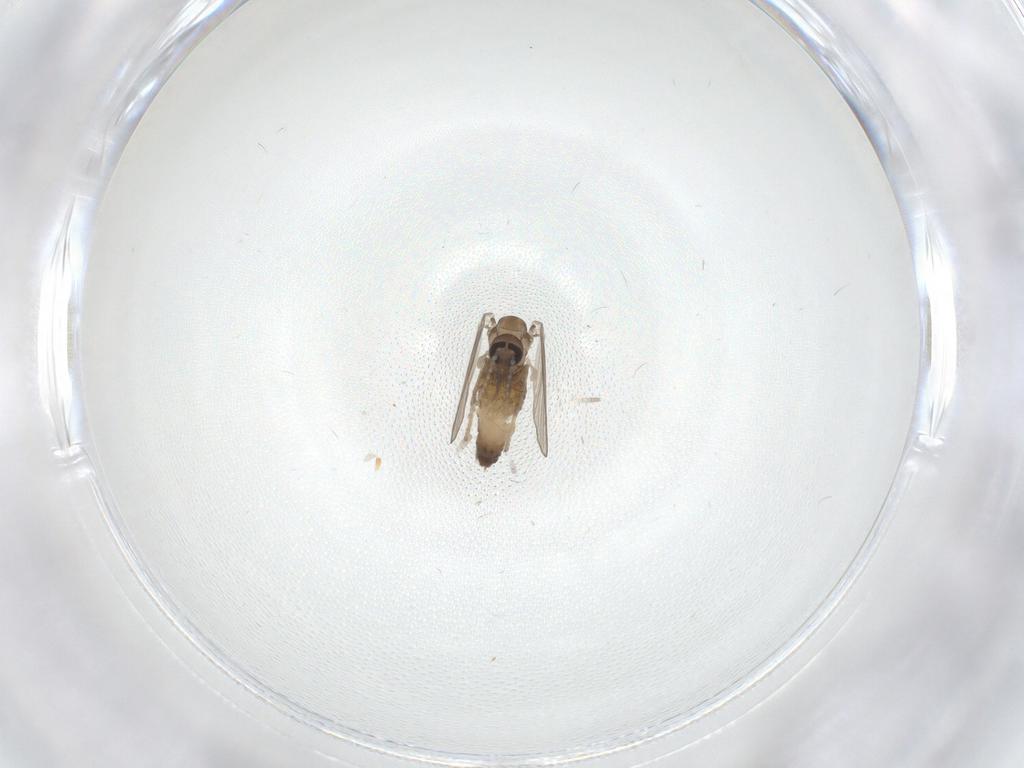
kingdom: Animalia
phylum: Arthropoda
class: Insecta
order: Diptera
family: Psychodidae
